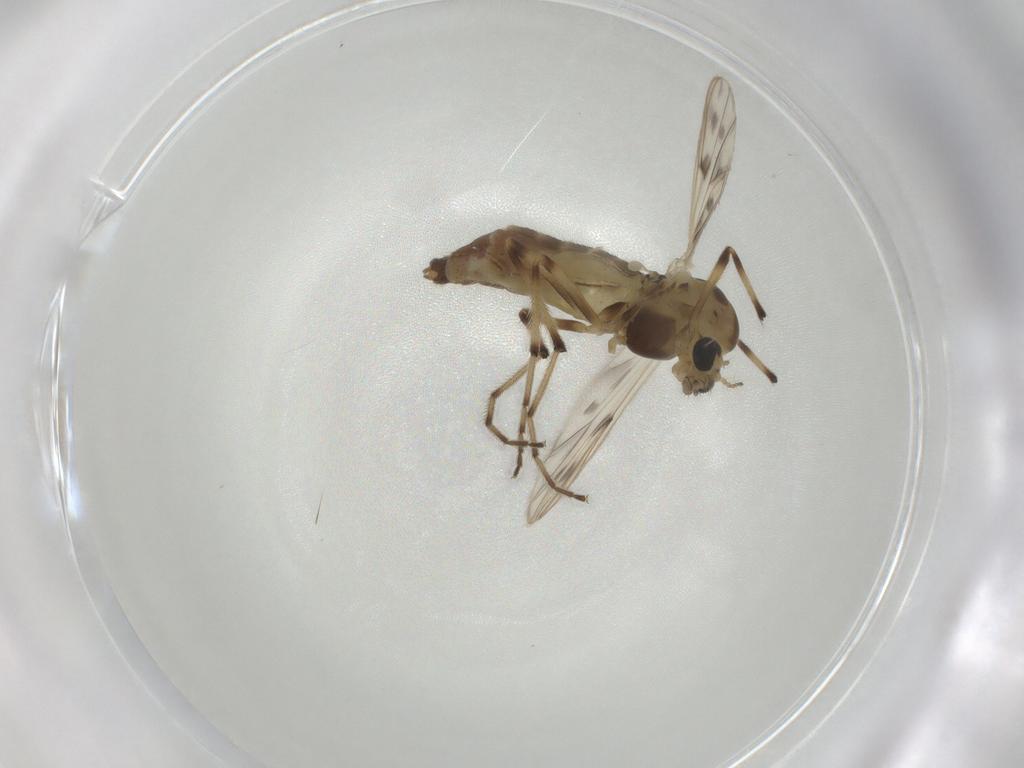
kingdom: Animalia
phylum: Arthropoda
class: Insecta
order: Diptera
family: Chironomidae
